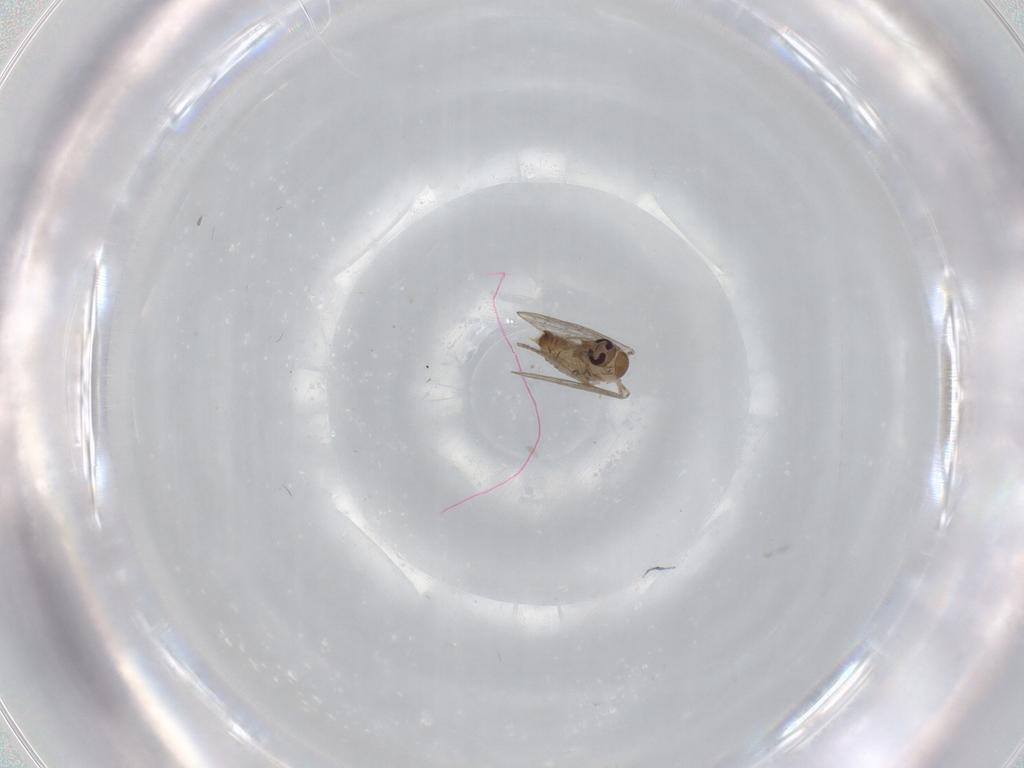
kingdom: Animalia
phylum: Arthropoda
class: Insecta
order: Diptera
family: Psychodidae
